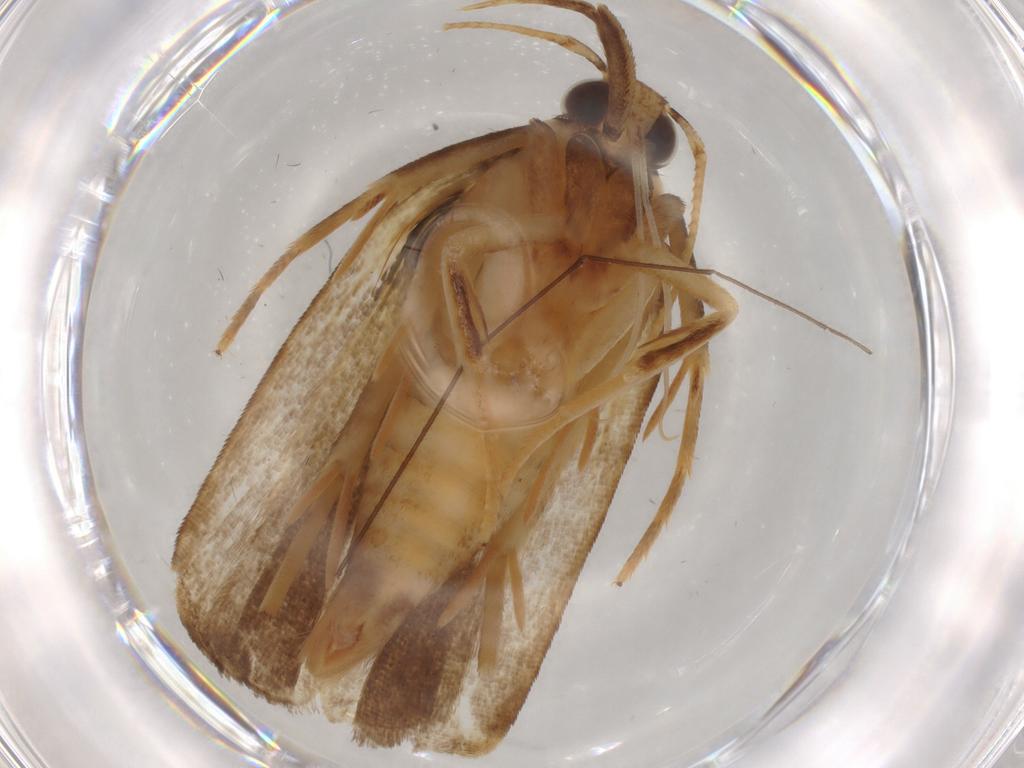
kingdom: Animalia
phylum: Arthropoda
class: Insecta
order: Lepidoptera
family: Gelechiidae
